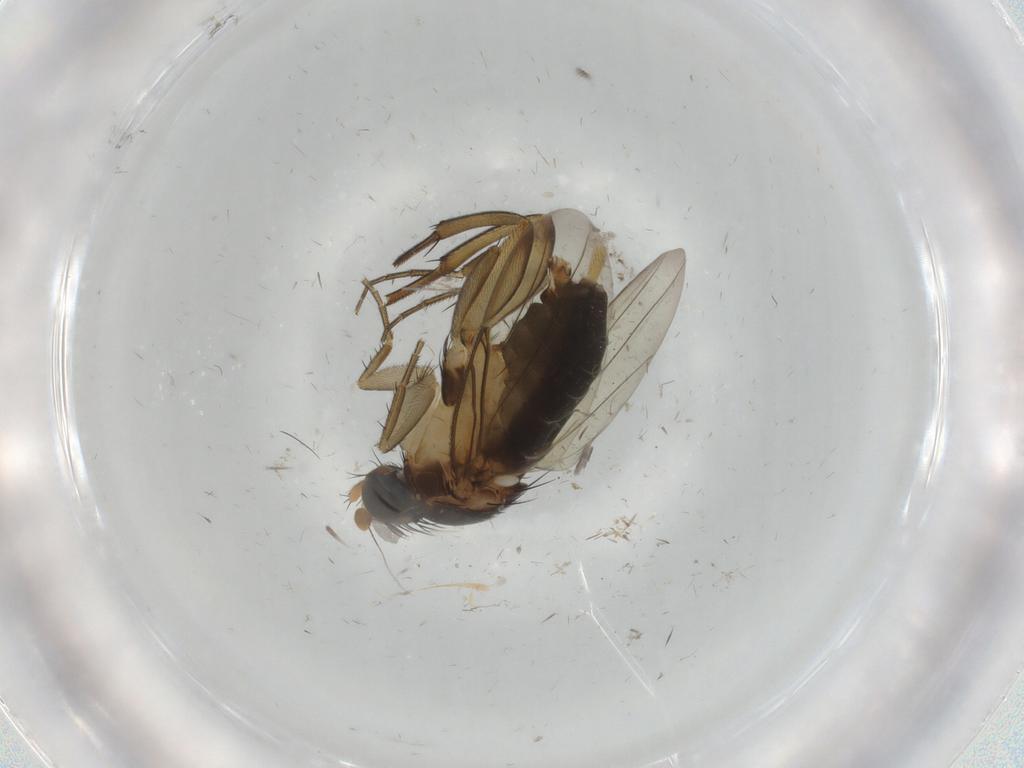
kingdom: Animalia
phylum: Arthropoda
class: Insecta
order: Diptera
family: Phoridae
